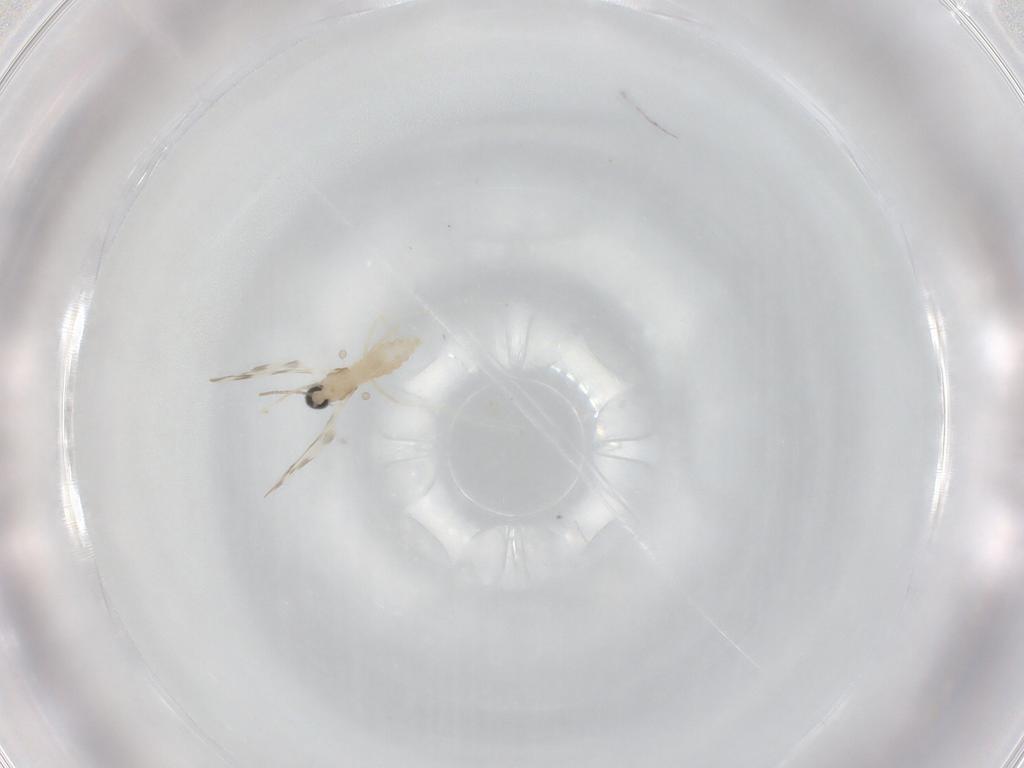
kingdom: Animalia
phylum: Arthropoda
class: Insecta
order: Diptera
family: Cecidomyiidae
